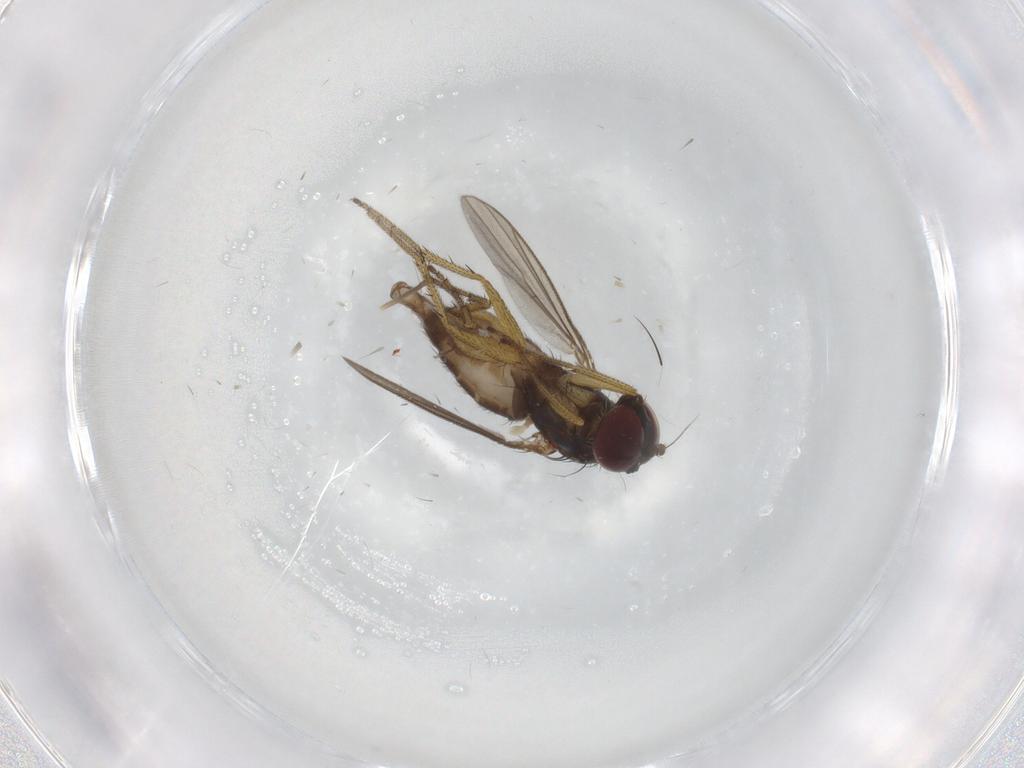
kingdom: Animalia
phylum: Arthropoda
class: Insecta
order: Diptera
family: Chironomidae
